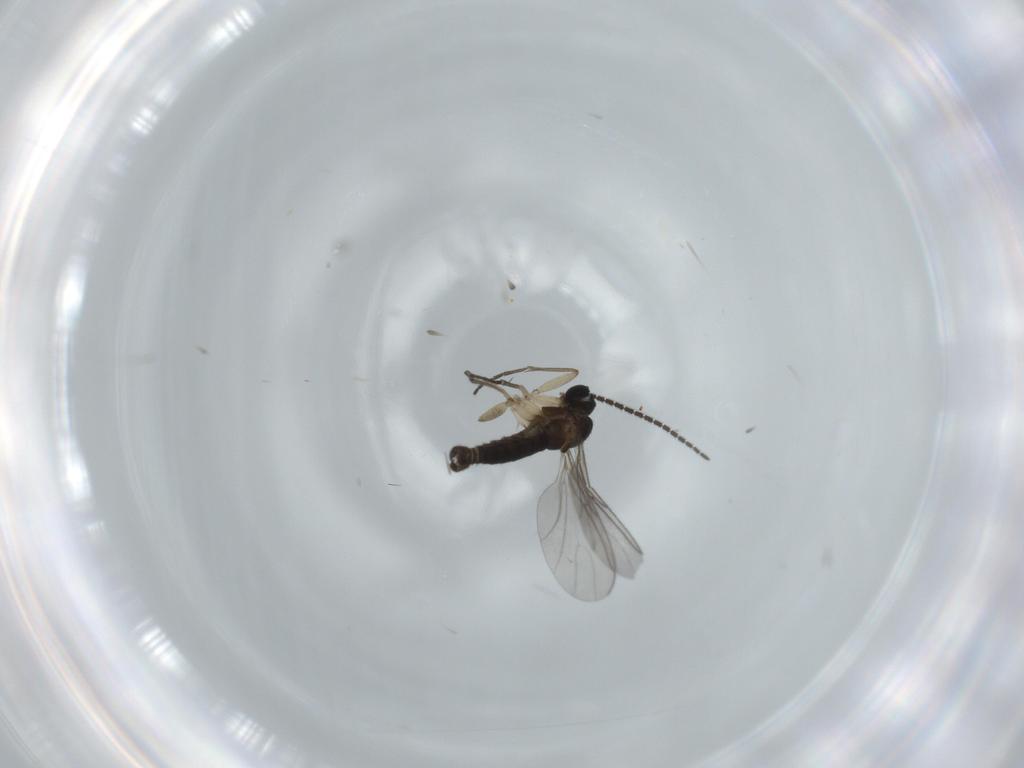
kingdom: Animalia
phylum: Arthropoda
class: Insecta
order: Diptera
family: Sciaridae
